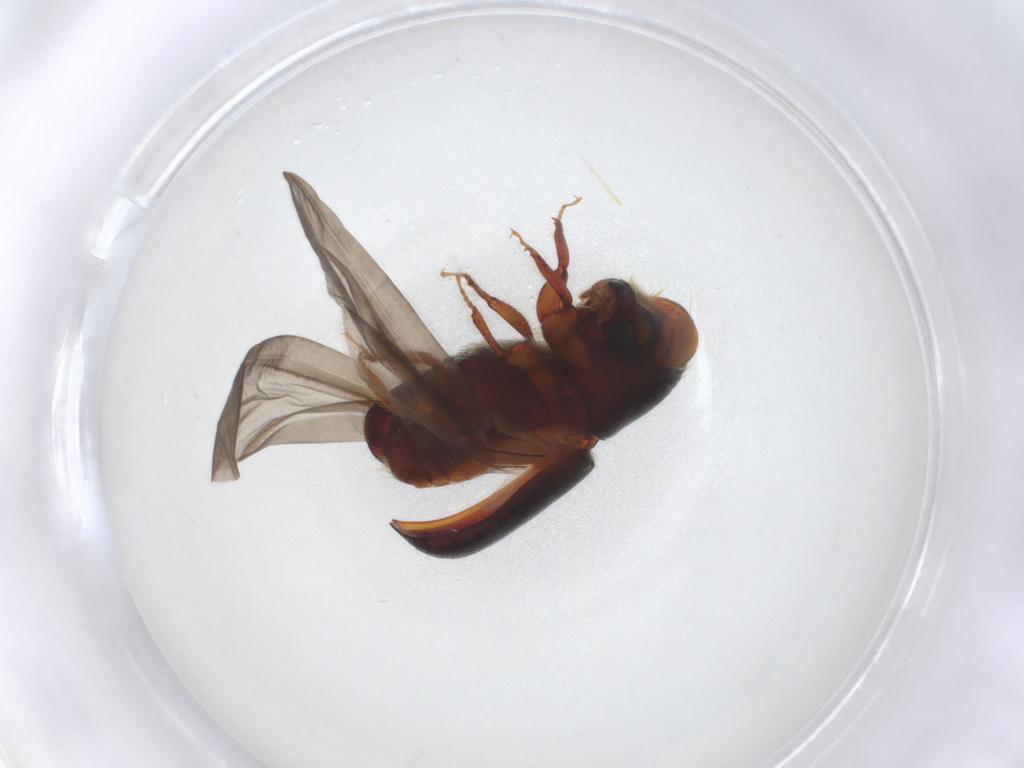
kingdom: Animalia
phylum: Arthropoda
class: Insecta
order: Coleoptera
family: Curculionidae
